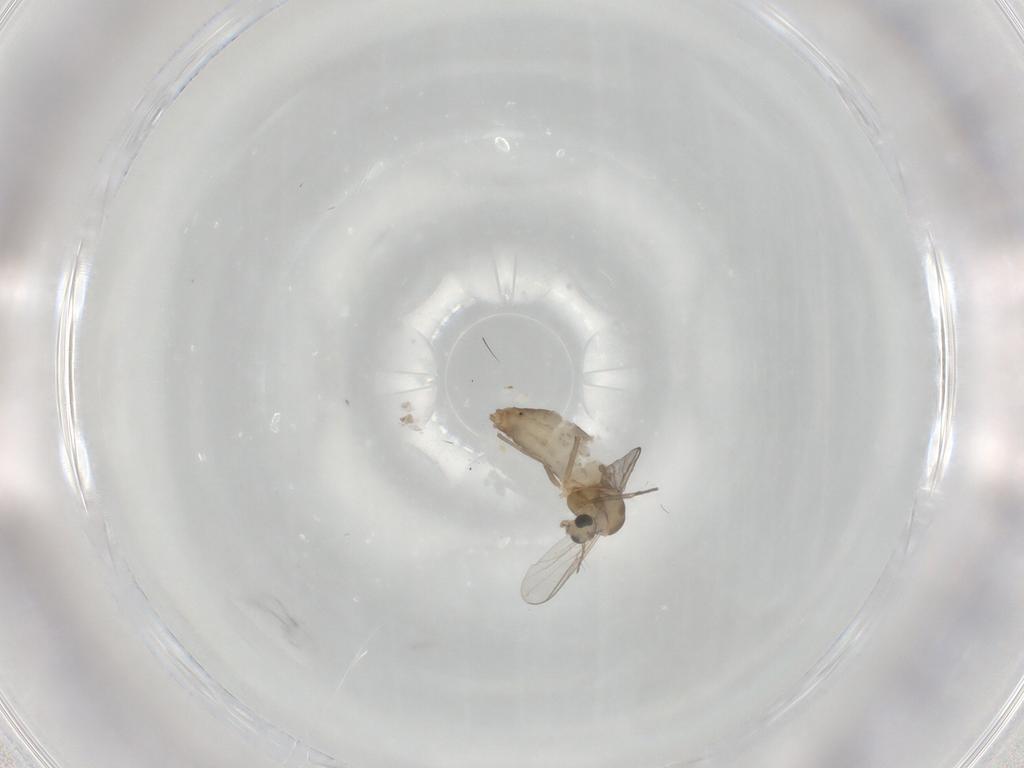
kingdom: Animalia
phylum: Arthropoda
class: Insecta
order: Diptera
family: Chironomidae
